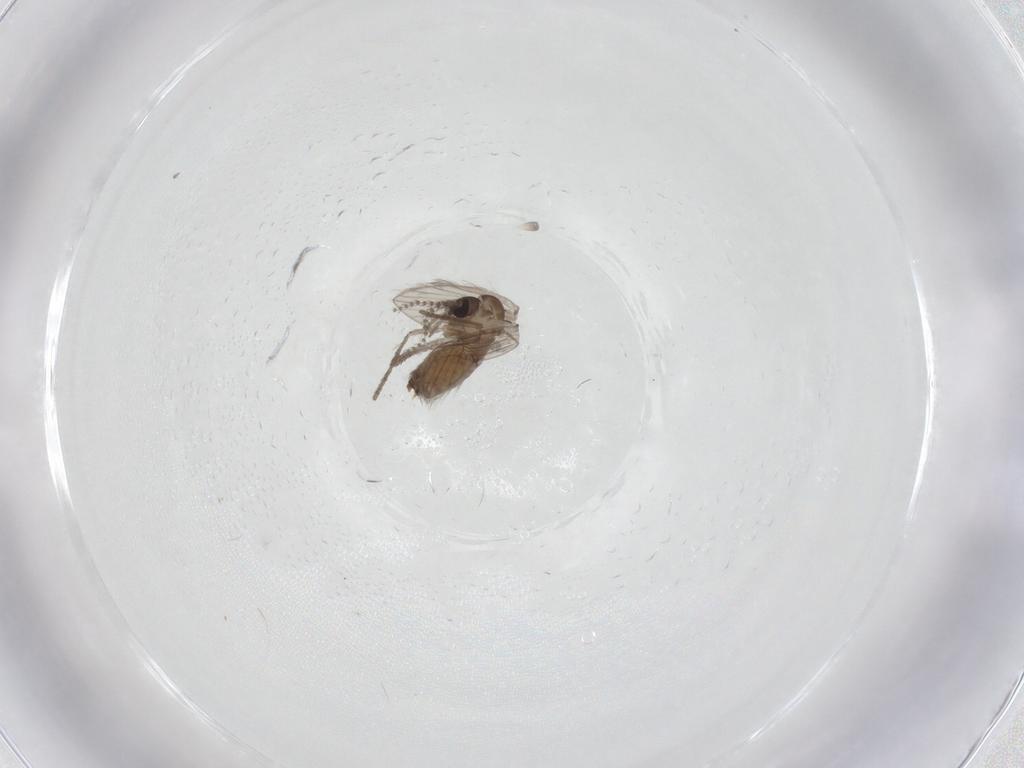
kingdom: Animalia
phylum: Arthropoda
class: Insecta
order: Diptera
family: Psychodidae
